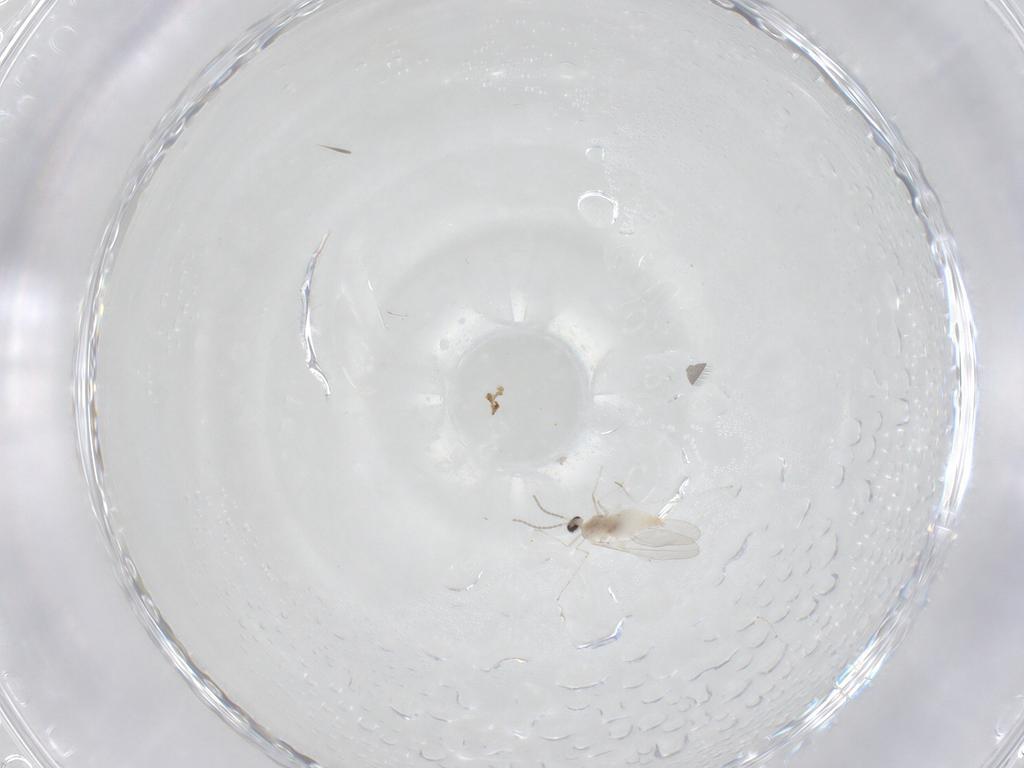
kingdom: Animalia
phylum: Arthropoda
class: Insecta
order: Diptera
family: Cecidomyiidae
